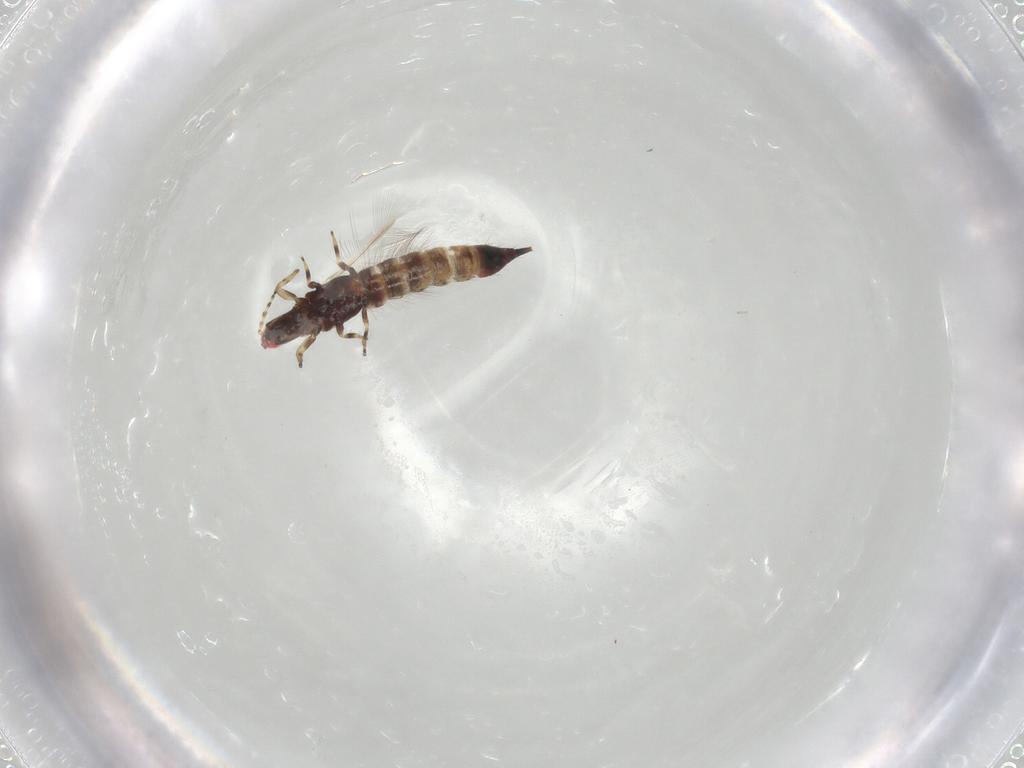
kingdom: Animalia
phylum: Arthropoda
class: Insecta
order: Thysanoptera
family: Phlaeothripidae
